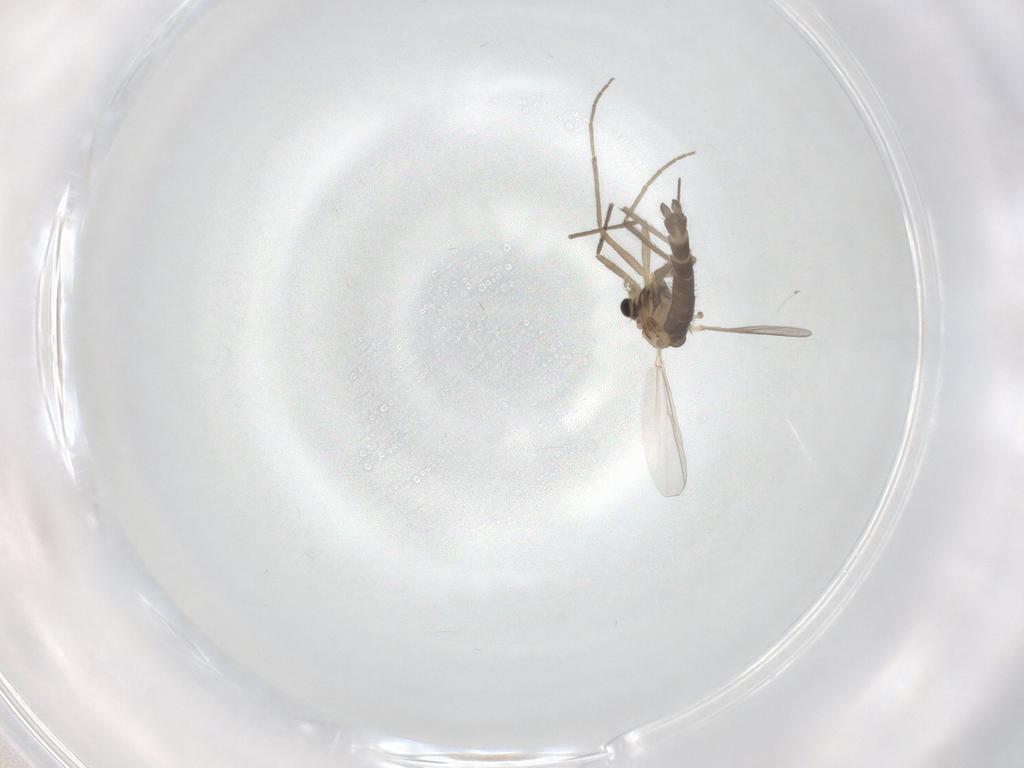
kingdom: Animalia
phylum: Arthropoda
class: Insecta
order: Diptera
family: Chironomidae
